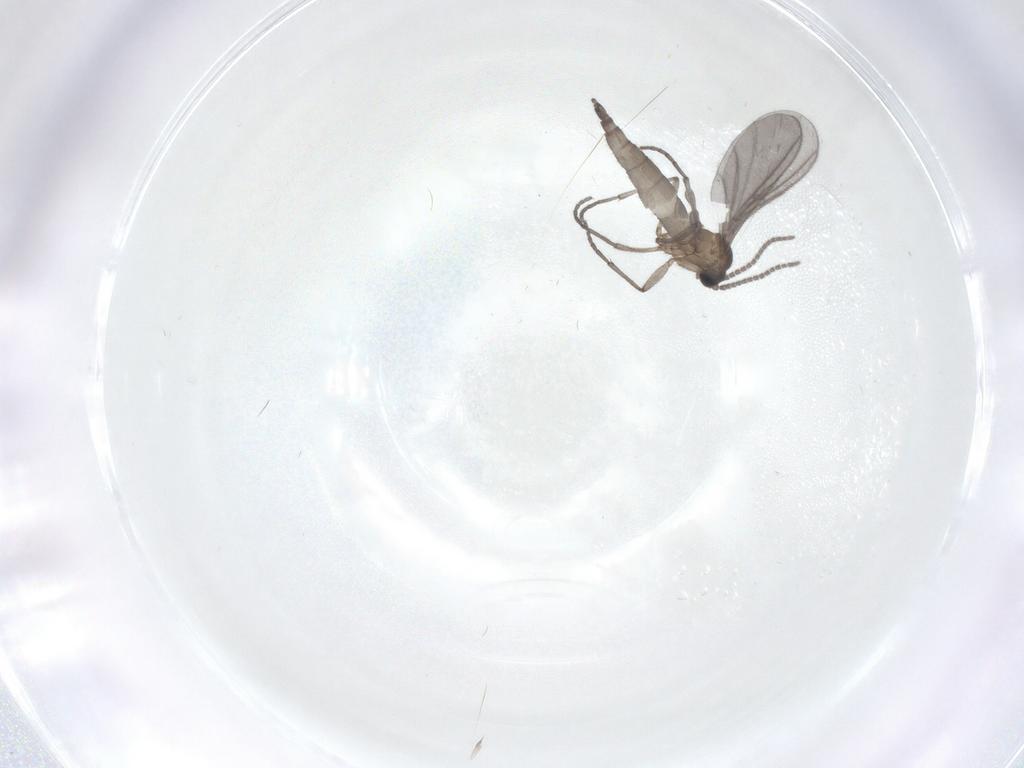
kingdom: Animalia
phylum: Arthropoda
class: Insecta
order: Diptera
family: Sciaridae
